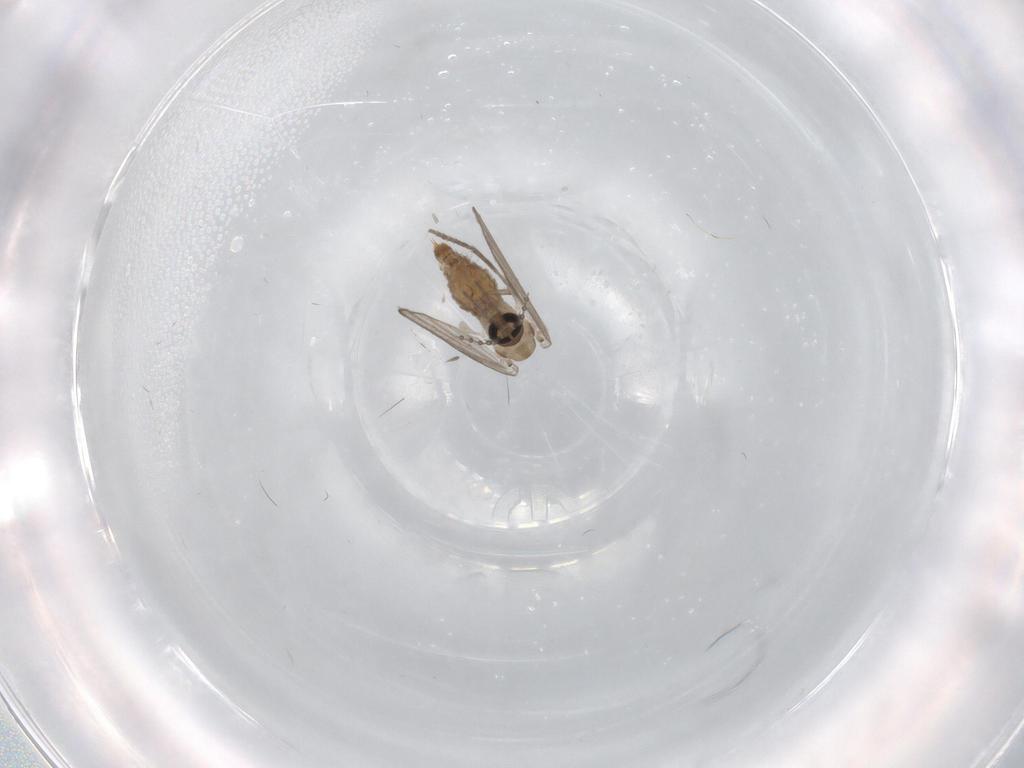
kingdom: Animalia
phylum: Arthropoda
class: Insecta
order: Diptera
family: Psychodidae
